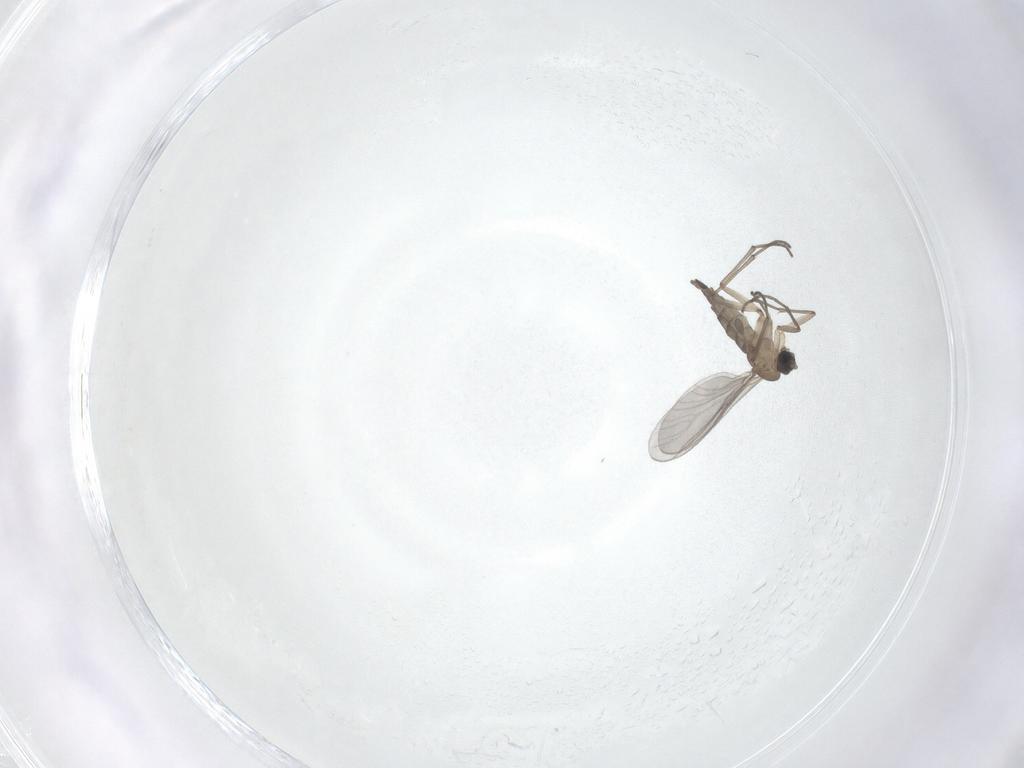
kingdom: Animalia
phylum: Arthropoda
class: Insecta
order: Diptera
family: Sciaridae
